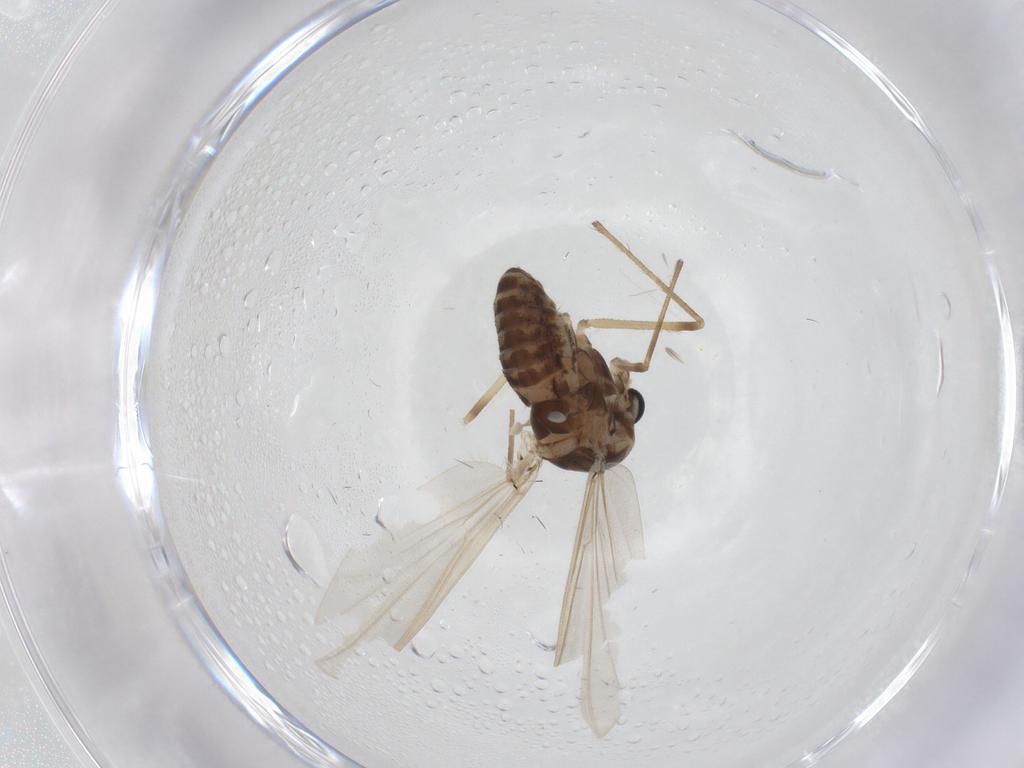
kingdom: Animalia
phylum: Arthropoda
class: Insecta
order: Diptera
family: Chironomidae
